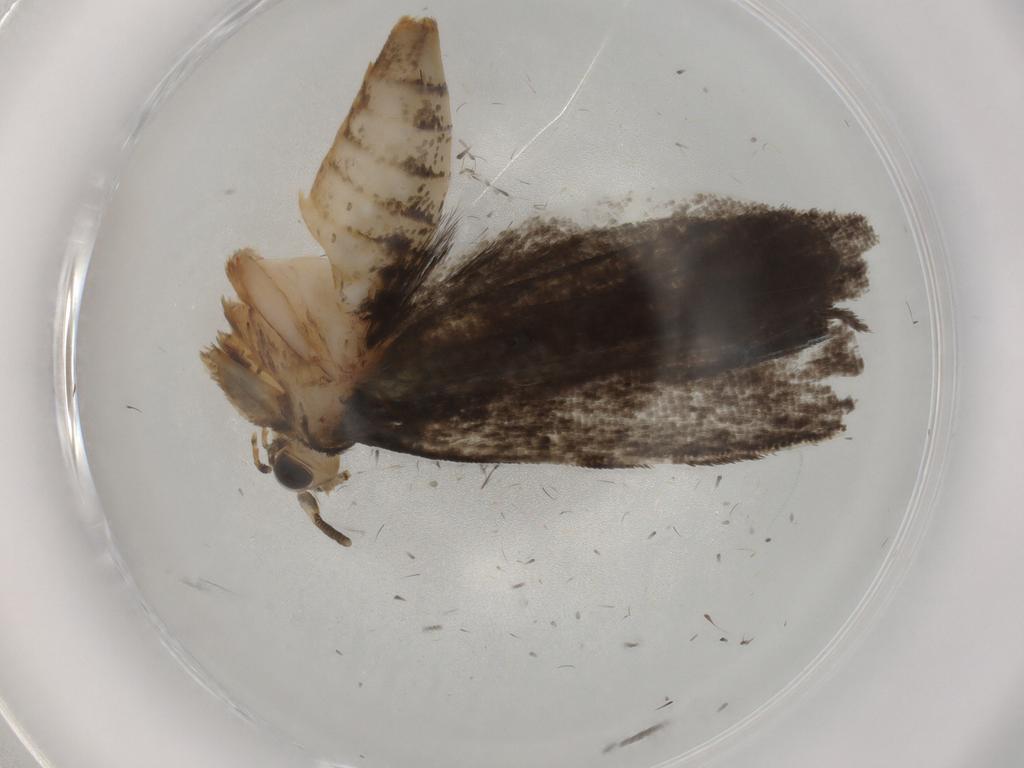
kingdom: Animalia
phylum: Arthropoda
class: Insecta
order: Lepidoptera
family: Tineidae
